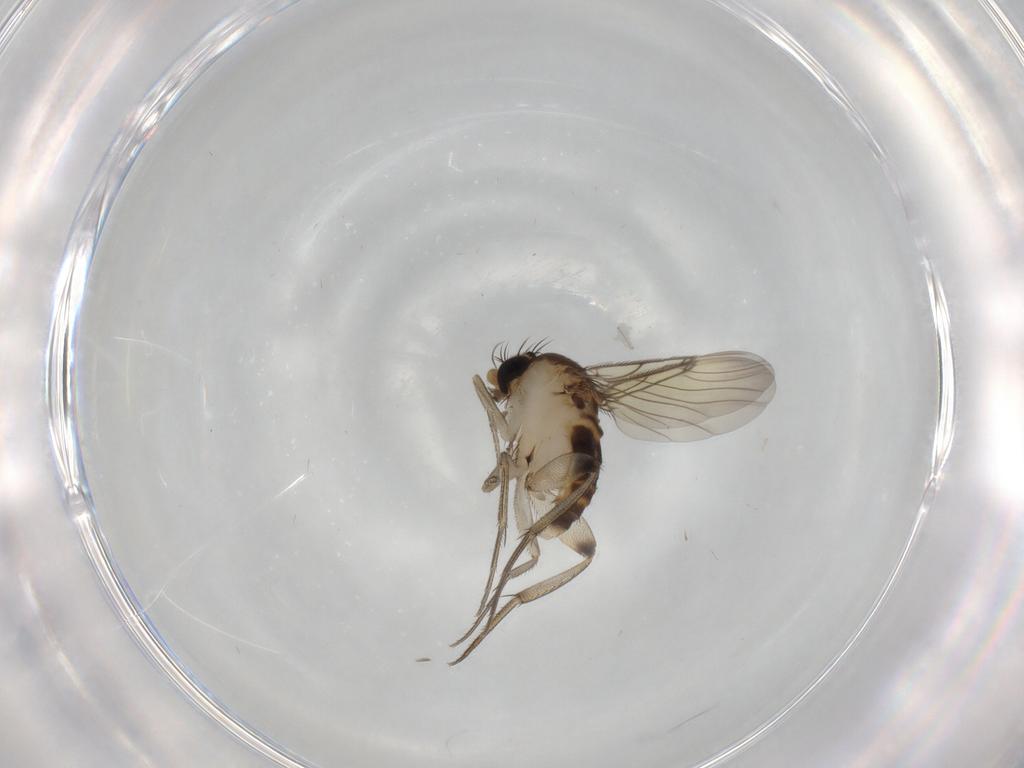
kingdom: Animalia
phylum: Arthropoda
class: Insecta
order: Diptera
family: Phoridae
